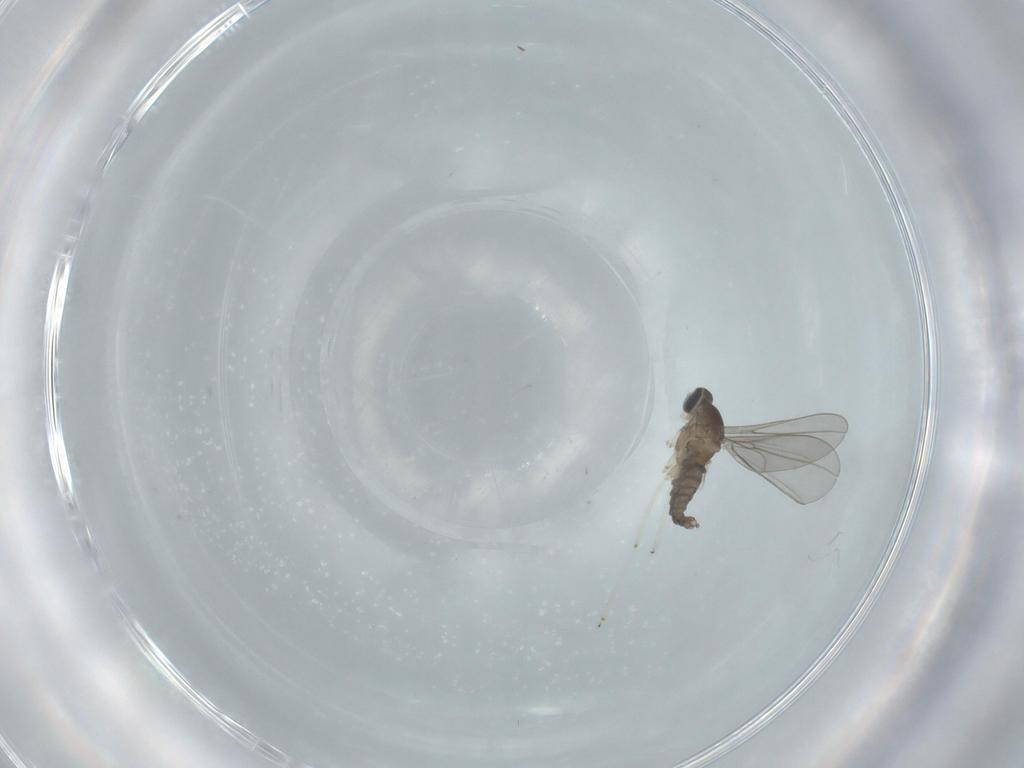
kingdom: Animalia
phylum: Arthropoda
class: Insecta
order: Diptera
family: Cecidomyiidae
